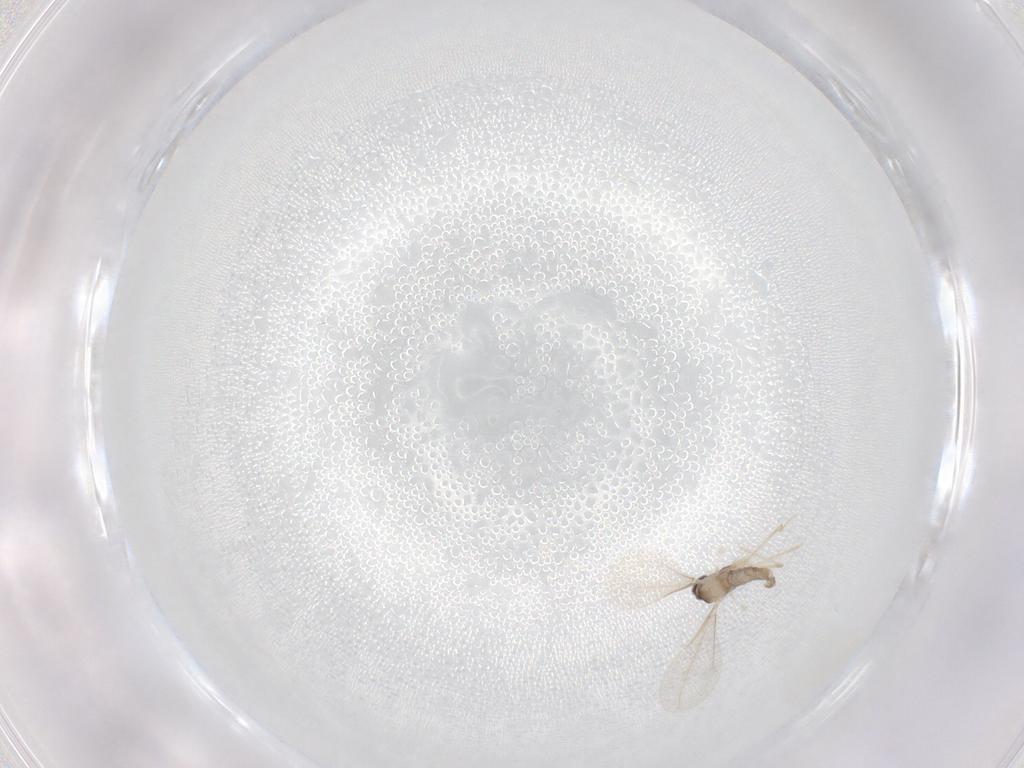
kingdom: Animalia
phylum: Arthropoda
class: Insecta
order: Diptera
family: Cecidomyiidae
